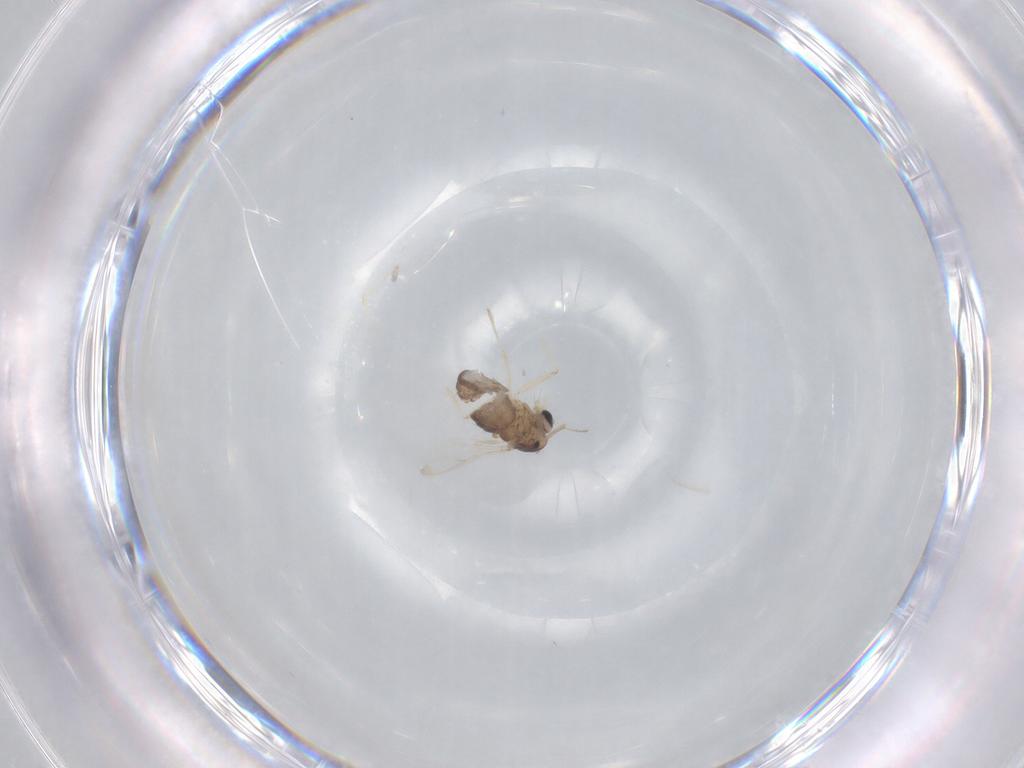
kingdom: Animalia
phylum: Arthropoda
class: Insecta
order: Diptera
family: Chironomidae
